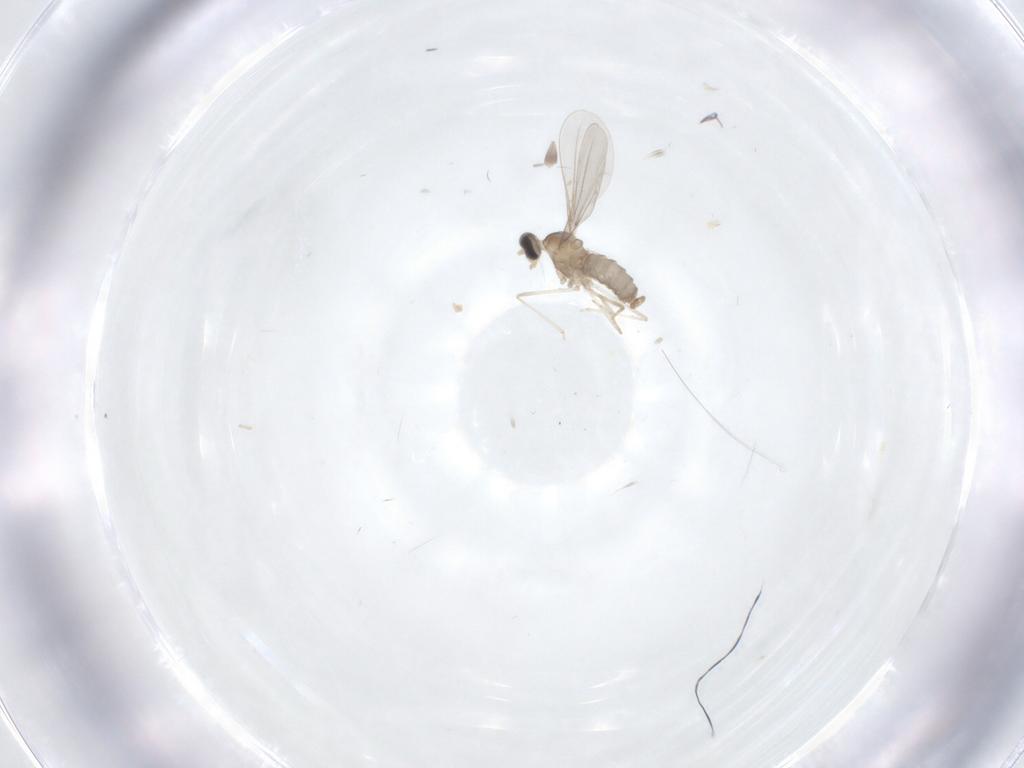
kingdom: Animalia
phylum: Arthropoda
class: Insecta
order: Diptera
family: Cecidomyiidae
